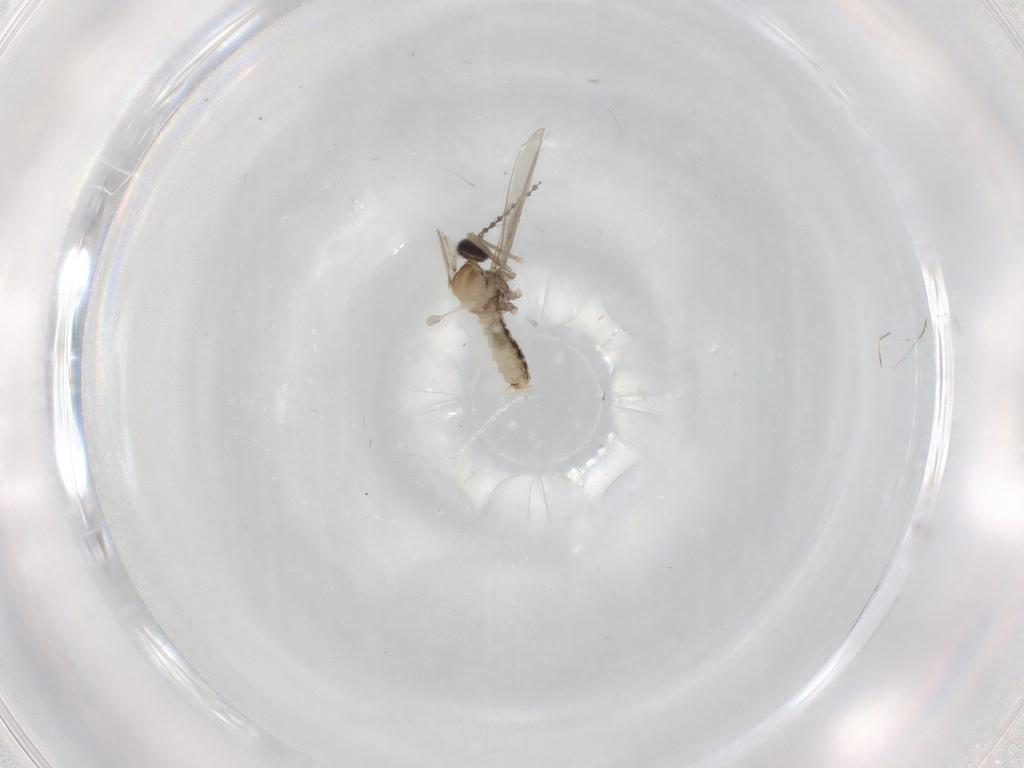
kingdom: Animalia
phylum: Arthropoda
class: Insecta
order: Diptera
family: Cecidomyiidae
